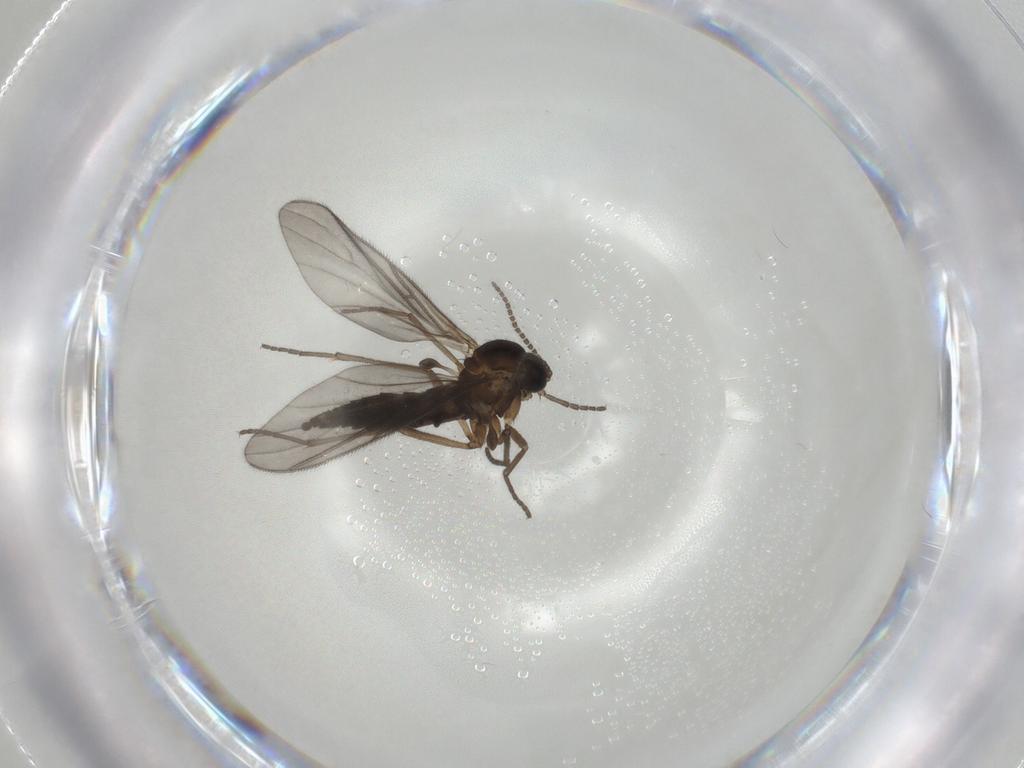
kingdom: Animalia
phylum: Arthropoda
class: Insecta
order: Diptera
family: Sciaridae
